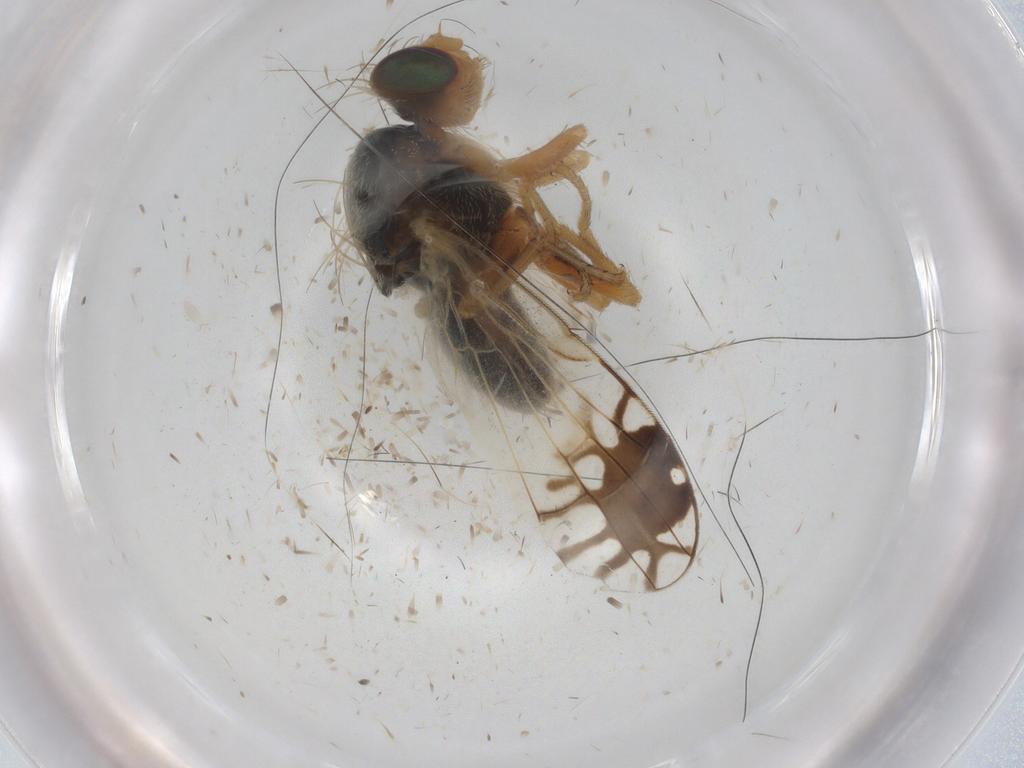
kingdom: Animalia
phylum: Arthropoda
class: Insecta
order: Diptera
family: Tephritidae
